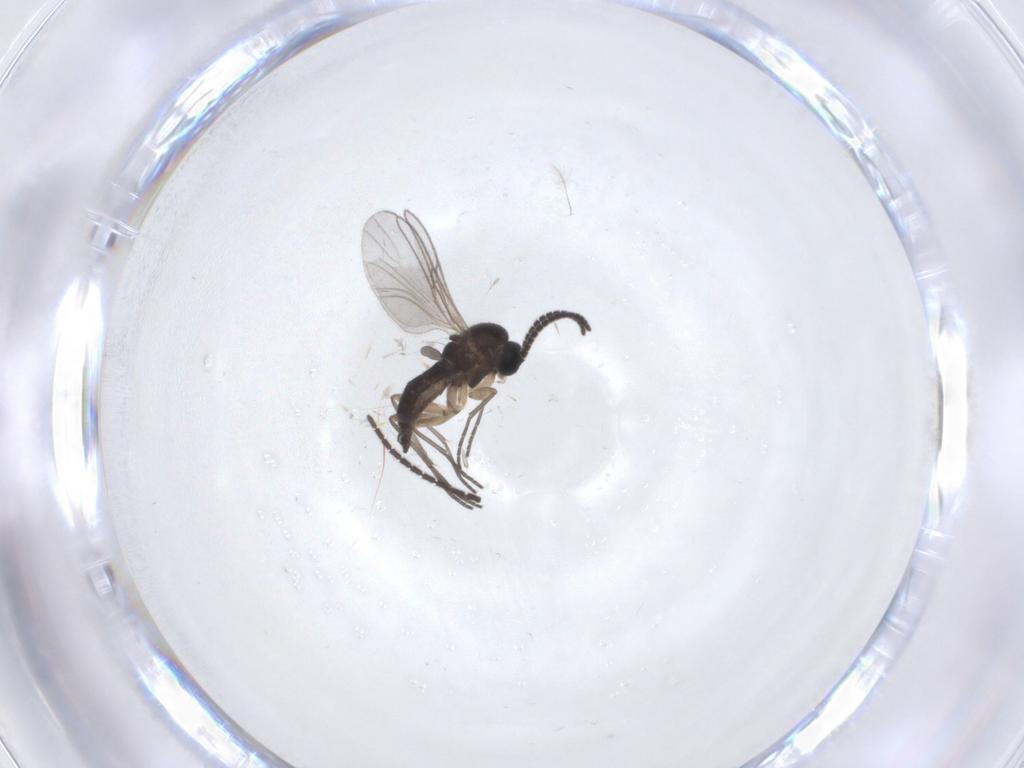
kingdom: Animalia
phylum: Arthropoda
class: Insecta
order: Diptera
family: Sciaridae
